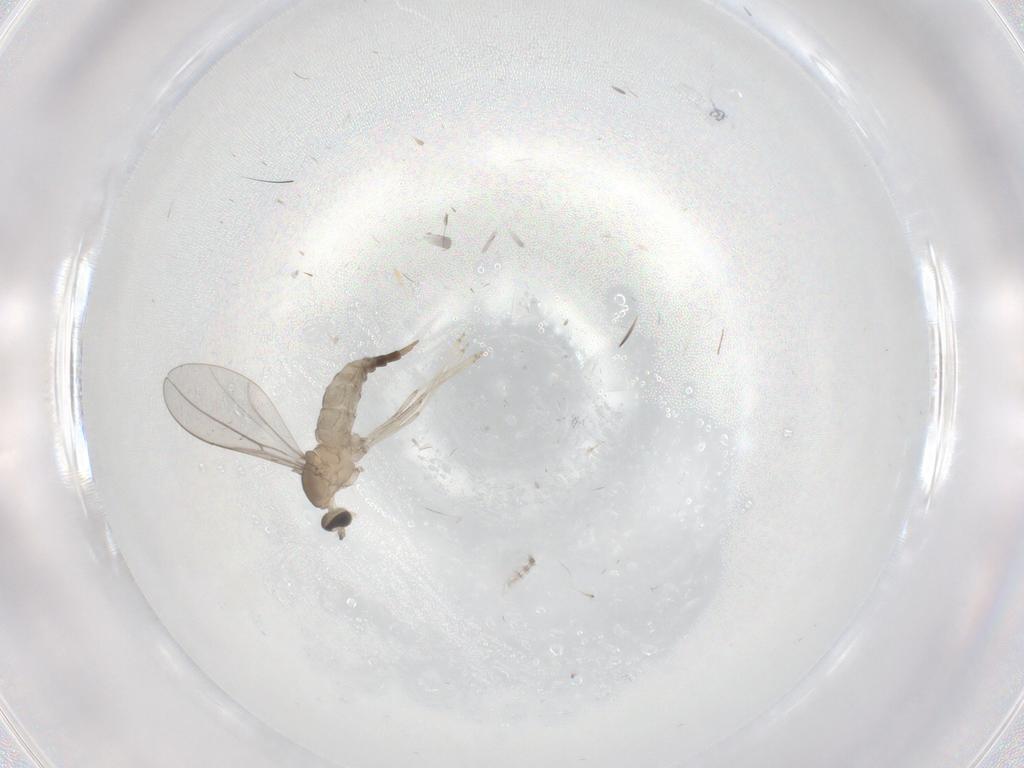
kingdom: Animalia
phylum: Arthropoda
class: Insecta
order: Diptera
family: Cecidomyiidae
